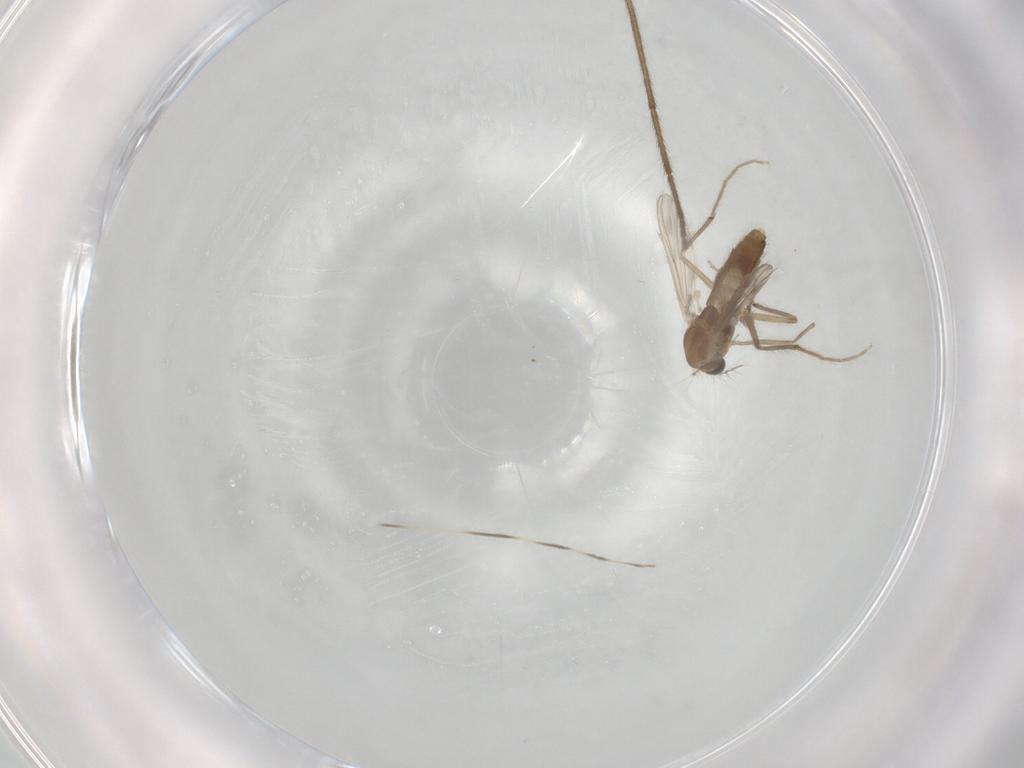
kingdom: Animalia
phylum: Arthropoda
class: Insecta
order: Diptera
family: Chironomidae
